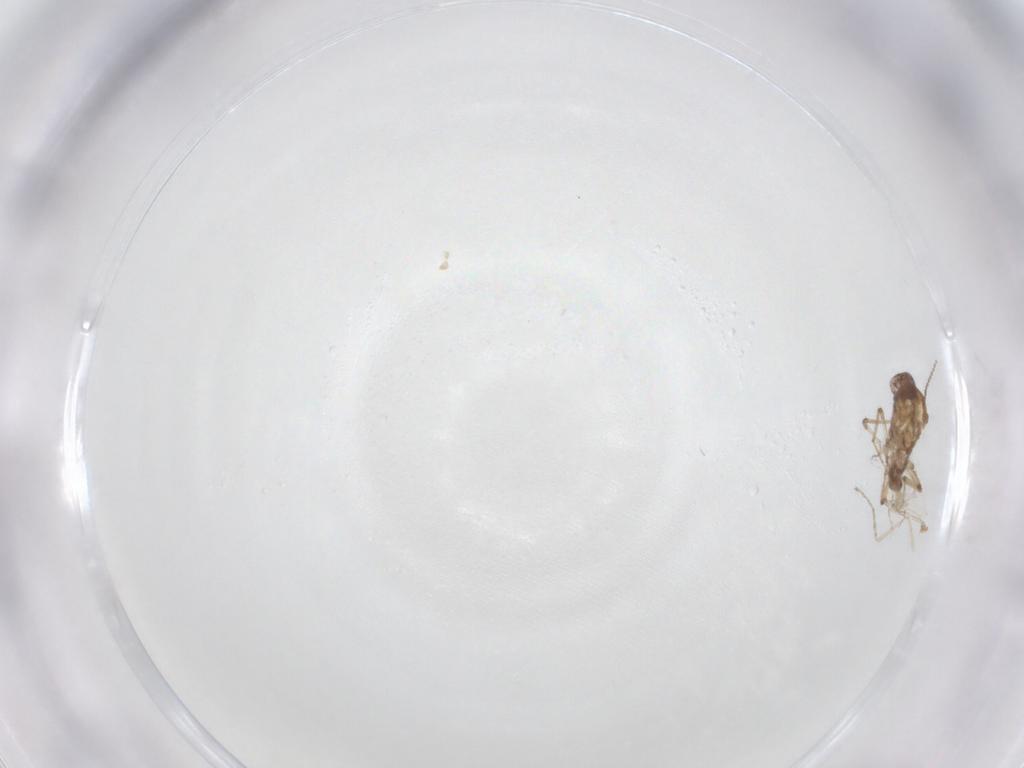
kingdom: Animalia
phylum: Arthropoda
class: Insecta
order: Diptera
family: Ceratopogonidae
